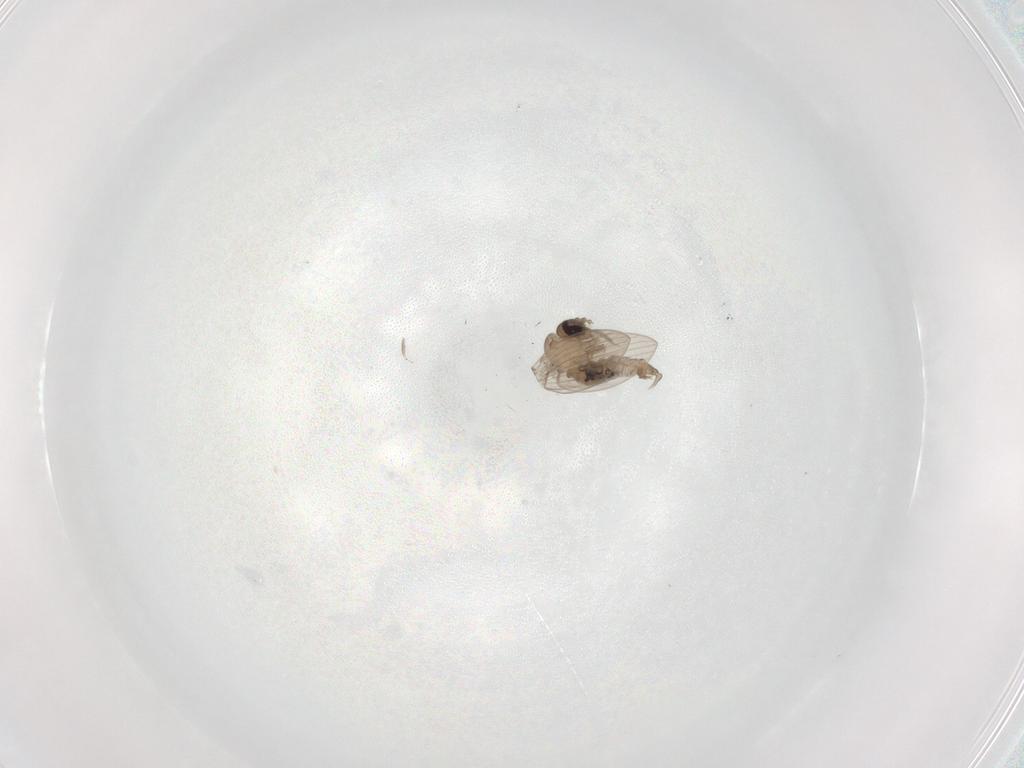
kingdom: Animalia
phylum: Arthropoda
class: Insecta
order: Diptera
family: Psychodidae
